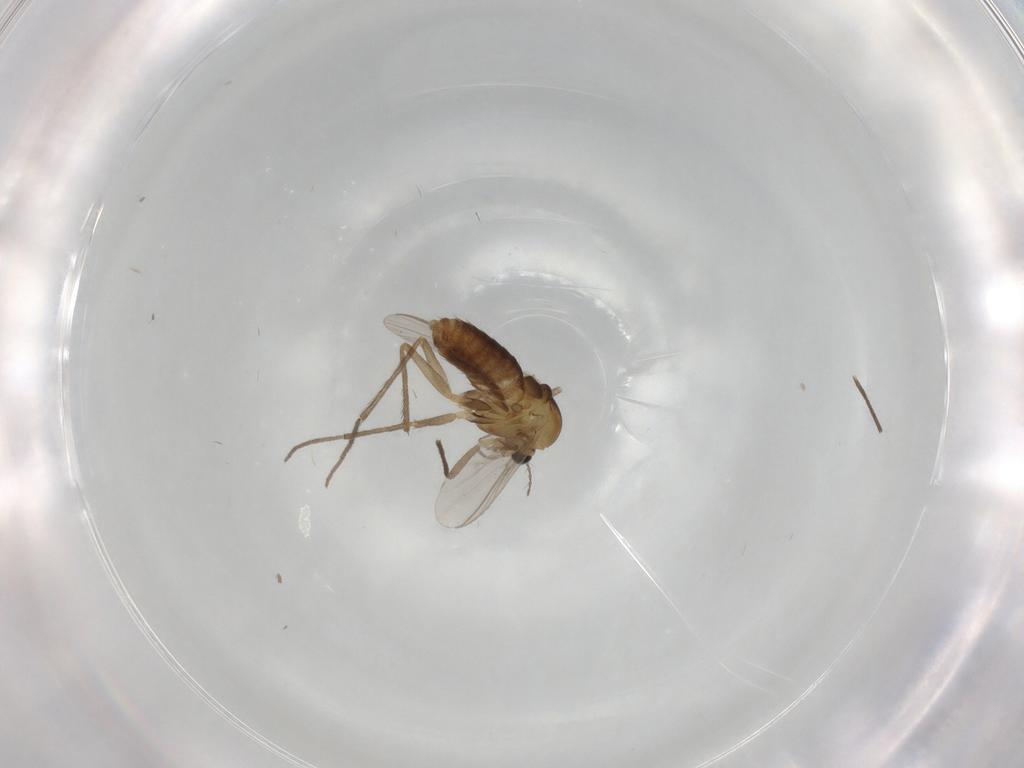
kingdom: Animalia
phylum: Arthropoda
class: Insecta
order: Diptera
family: Chironomidae
